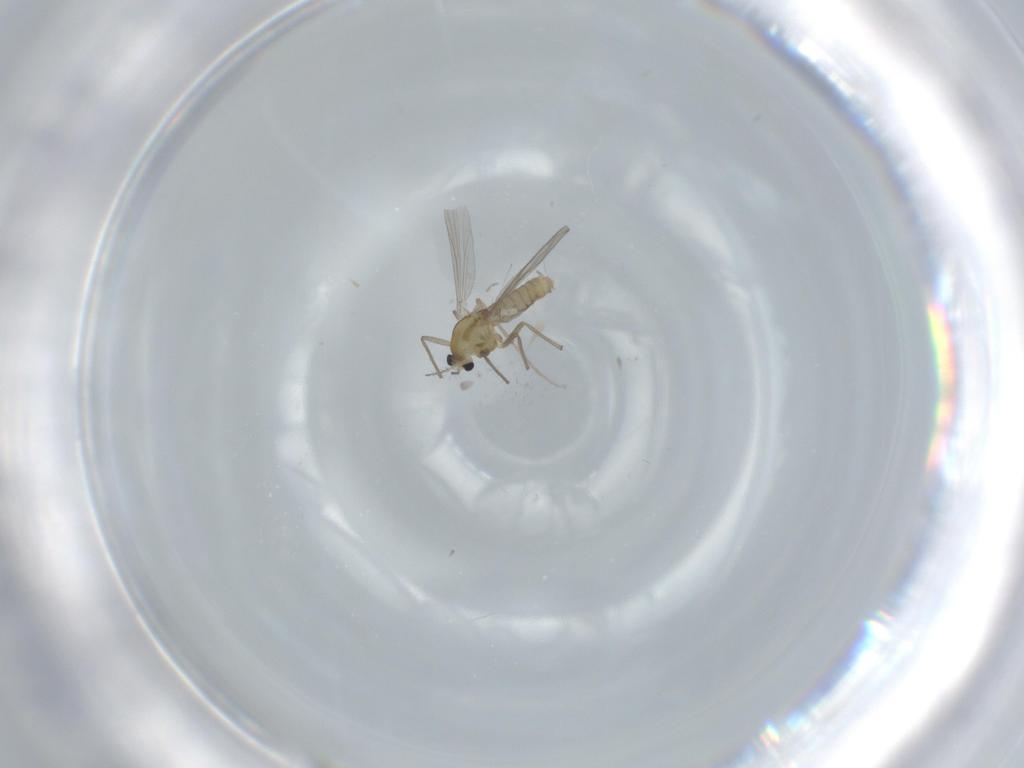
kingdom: Animalia
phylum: Arthropoda
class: Insecta
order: Diptera
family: Chironomidae
